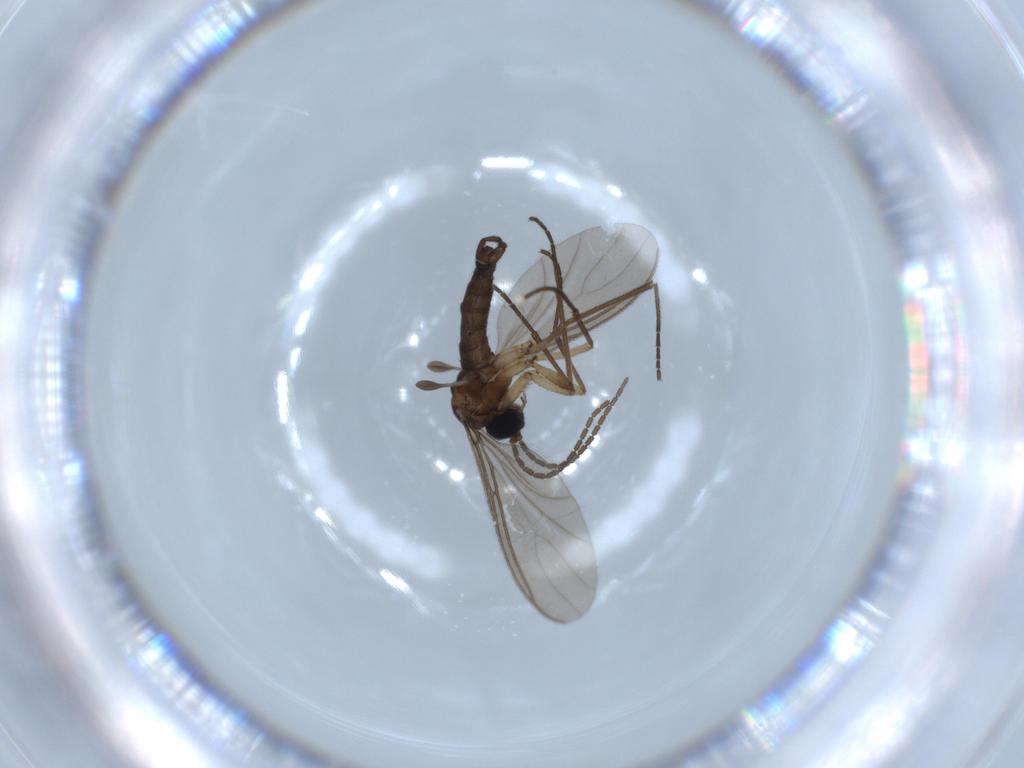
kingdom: Animalia
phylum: Arthropoda
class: Insecta
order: Diptera
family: Sciaridae
